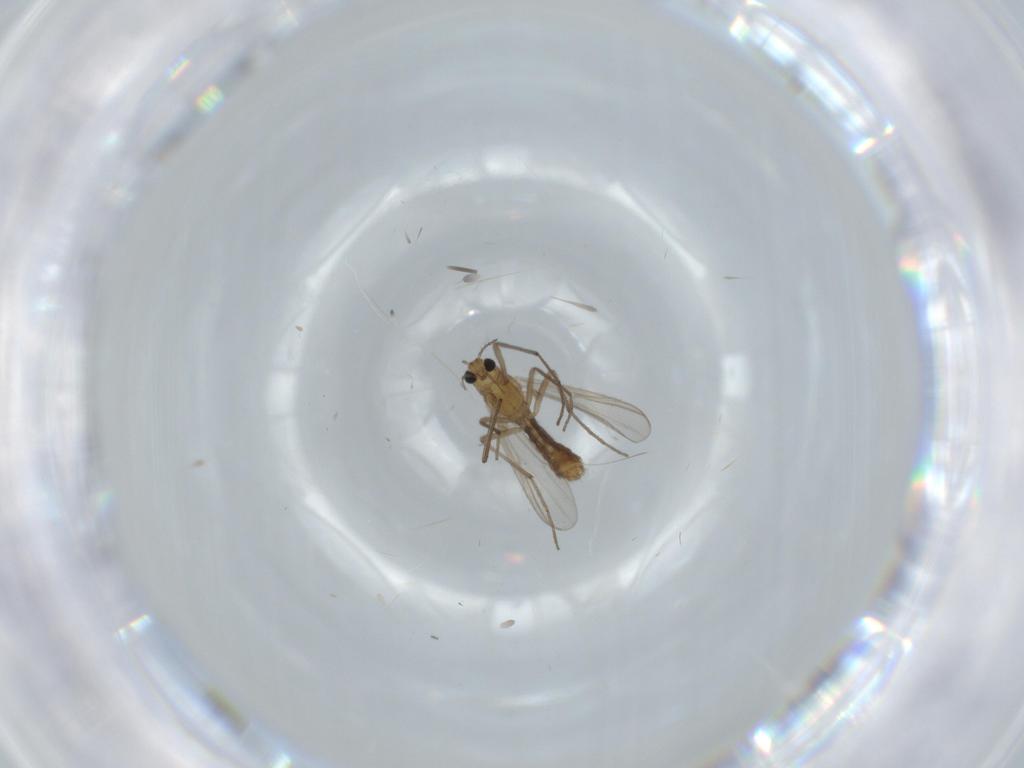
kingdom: Animalia
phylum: Arthropoda
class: Insecta
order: Diptera
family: Chironomidae
